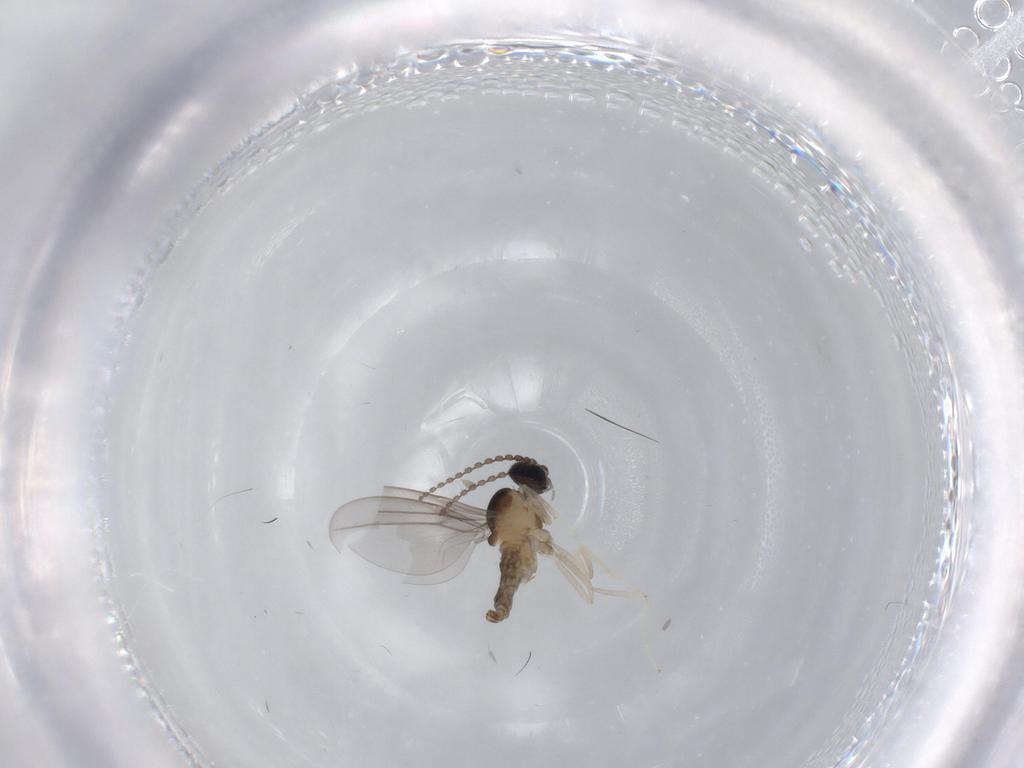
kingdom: Animalia
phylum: Arthropoda
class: Insecta
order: Diptera
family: Cecidomyiidae
